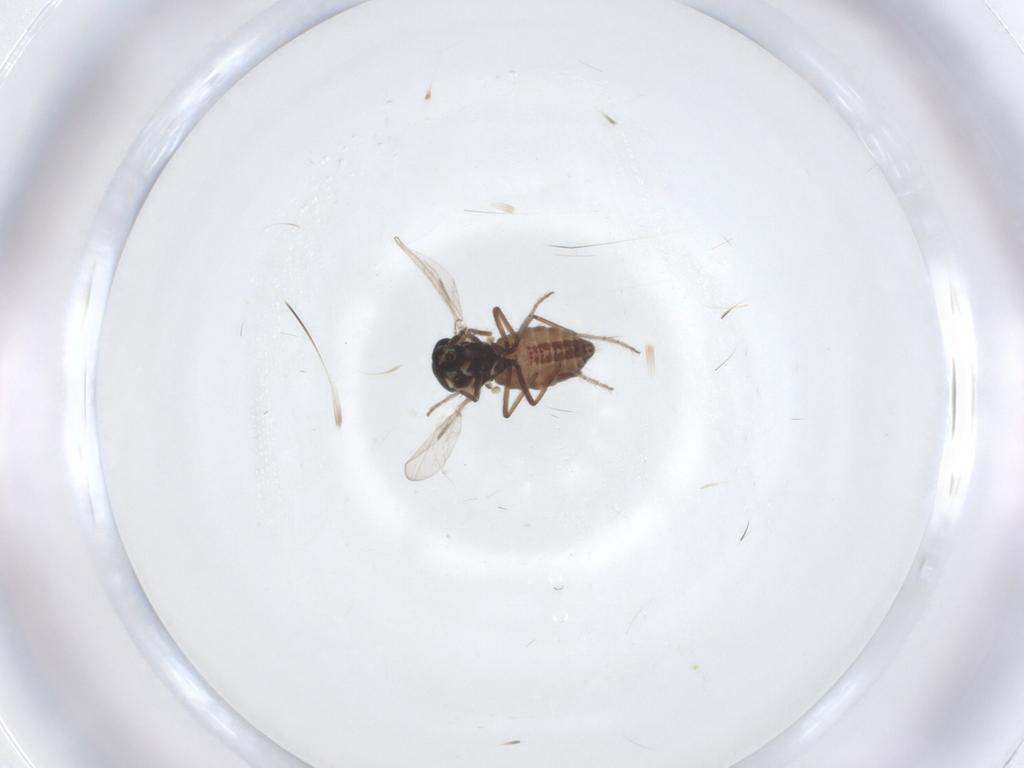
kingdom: Animalia
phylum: Arthropoda
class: Insecta
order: Diptera
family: Ceratopogonidae
